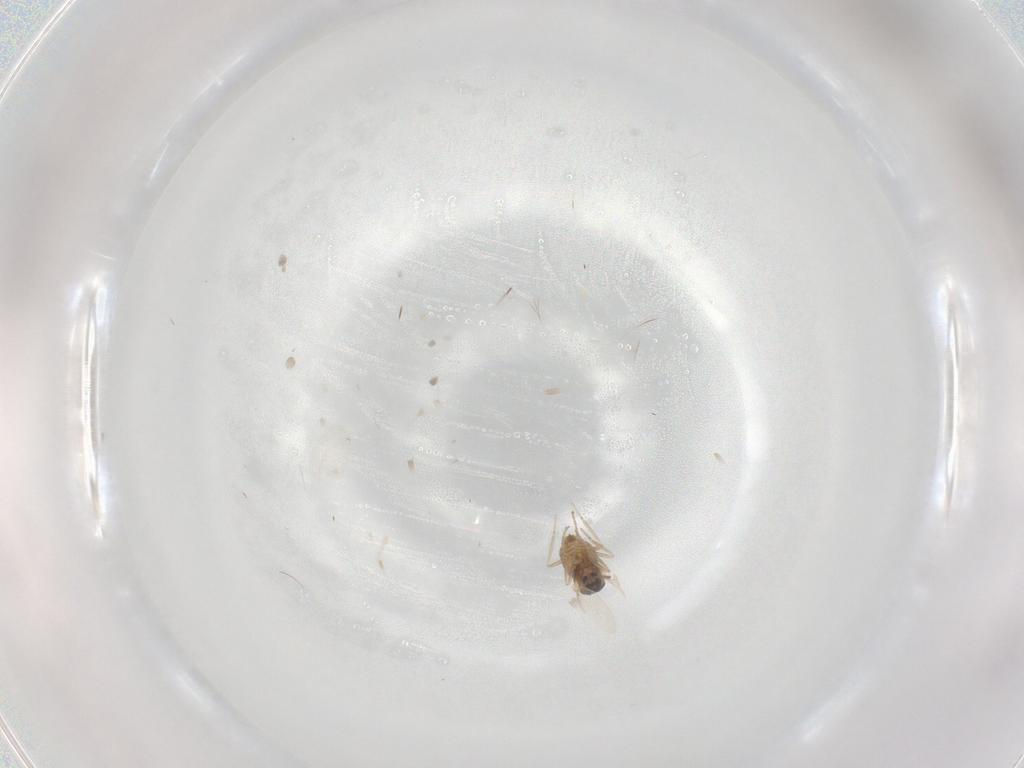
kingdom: Animalia
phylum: Arthropoda
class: Insecta
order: Diptera
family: Cecidomyiidae
